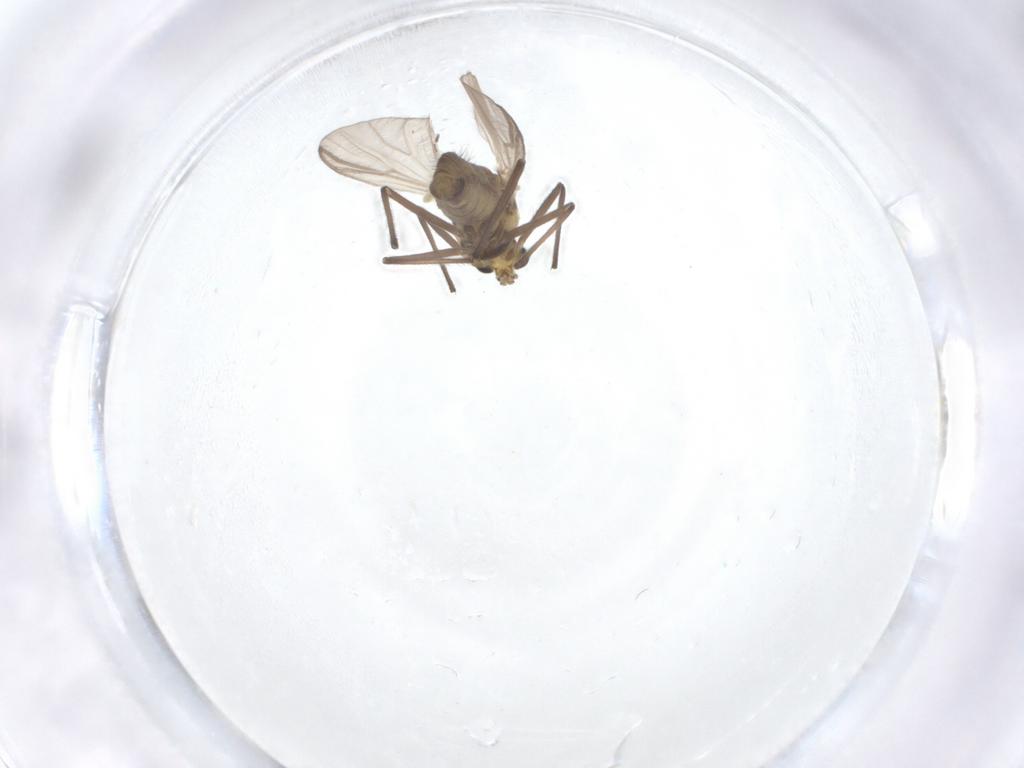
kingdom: Animalia
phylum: Arthropoda
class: Insecta
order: Diptera
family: Chironomidae
